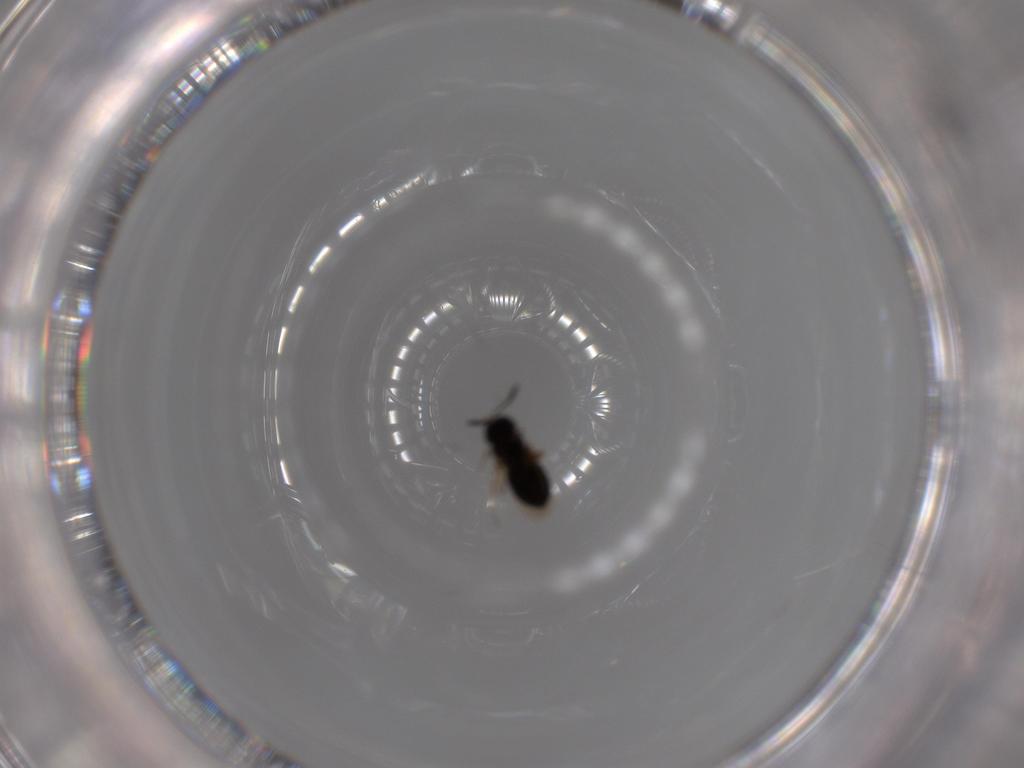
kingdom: Animalia
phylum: Arthropoda
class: Insecta
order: Hymenoptera
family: Scelionidae
